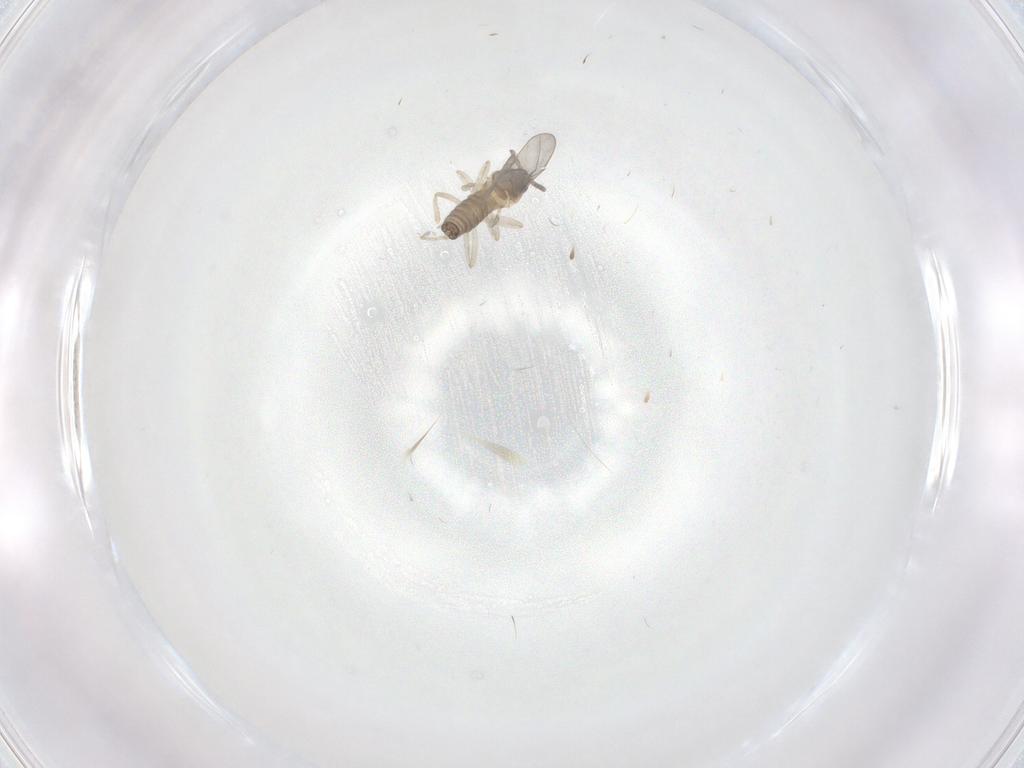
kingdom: Animalia
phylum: Arthropoda
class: Insecta
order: Diptera
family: Cecidomyiidae
